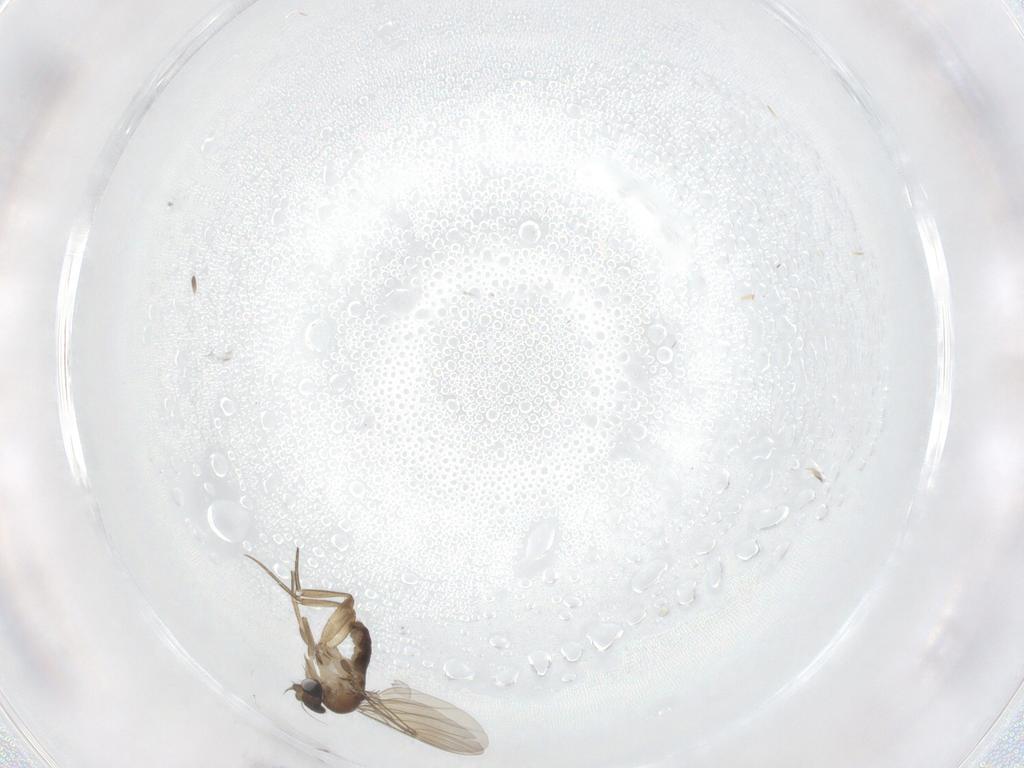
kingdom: Animalia
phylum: Arthropoda
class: Insecta
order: Diptera
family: Phoridae
